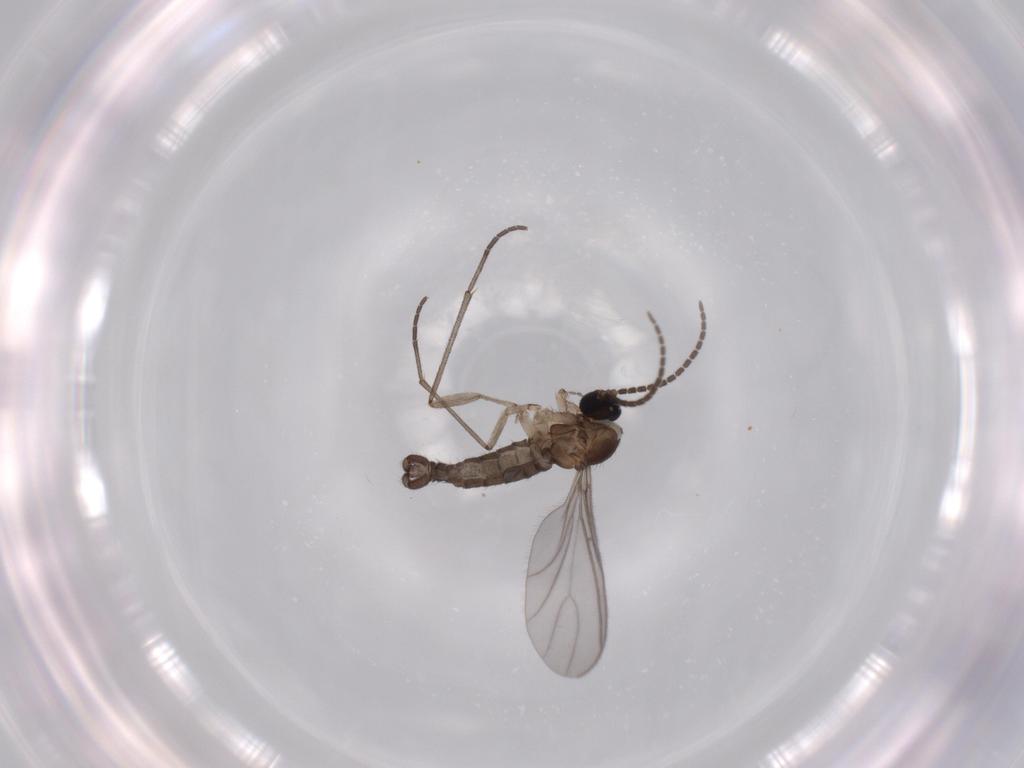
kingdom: Animalia
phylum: Arthropoda
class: Insecta
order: Diptera
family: Sciaridae
